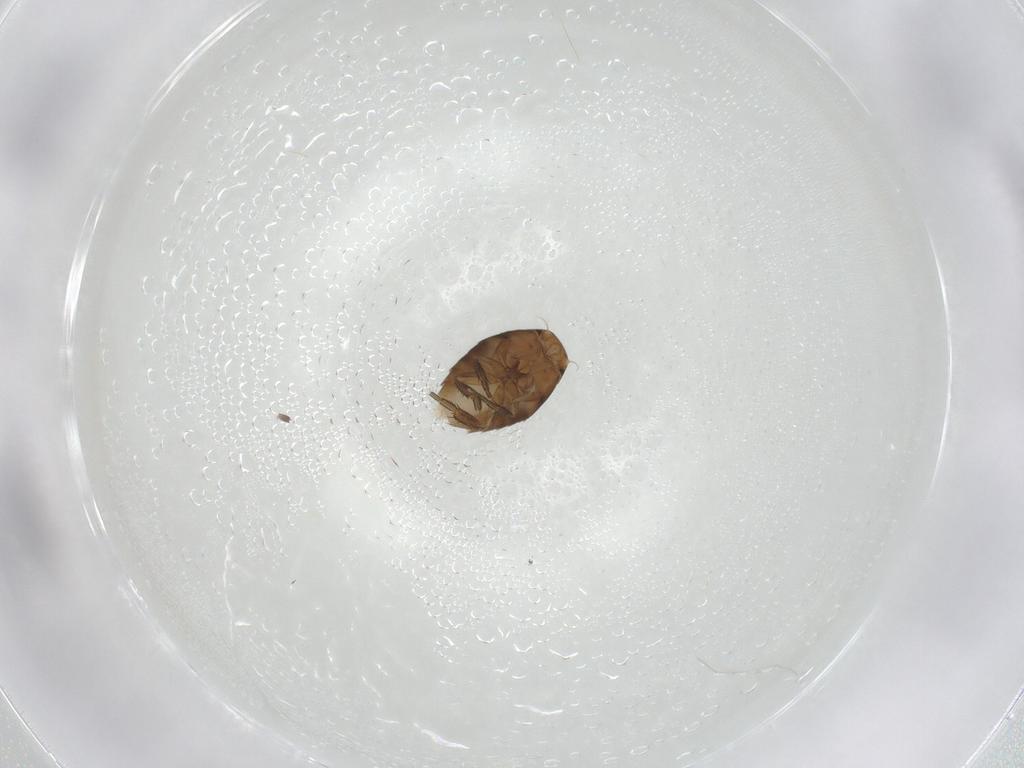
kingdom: Animalia
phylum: Arthropoda
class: Insecta
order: Diptera
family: Phoridae
